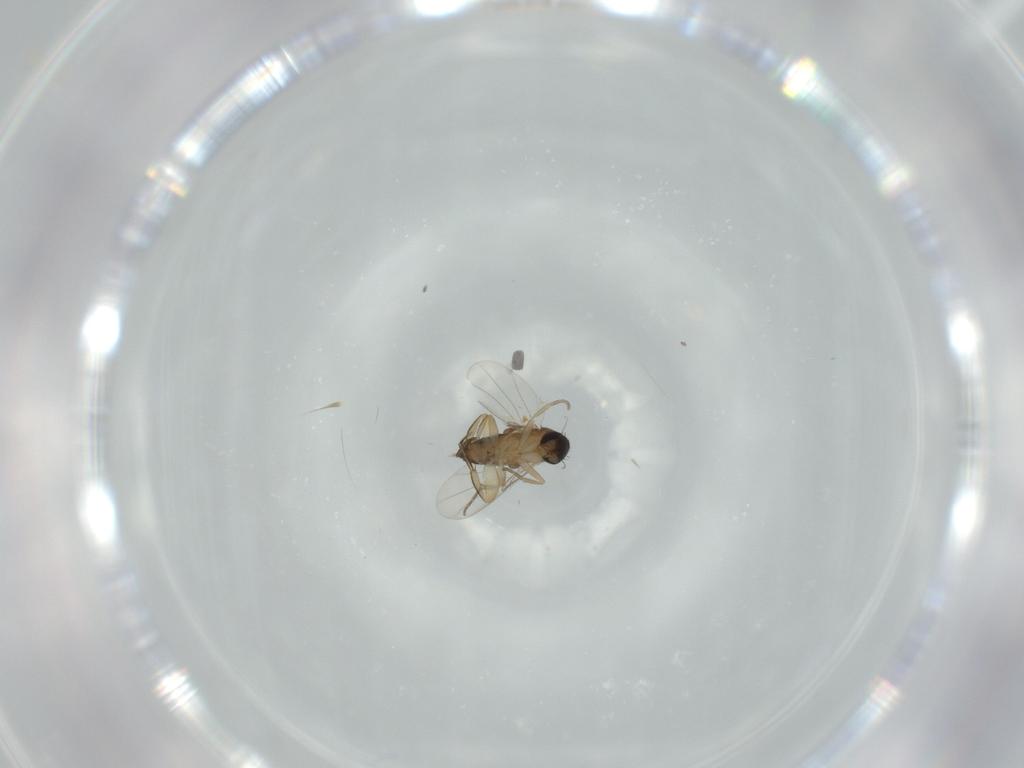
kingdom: Animalia
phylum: Arthropoda
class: Insecta
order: Diptera
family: Phoridae
